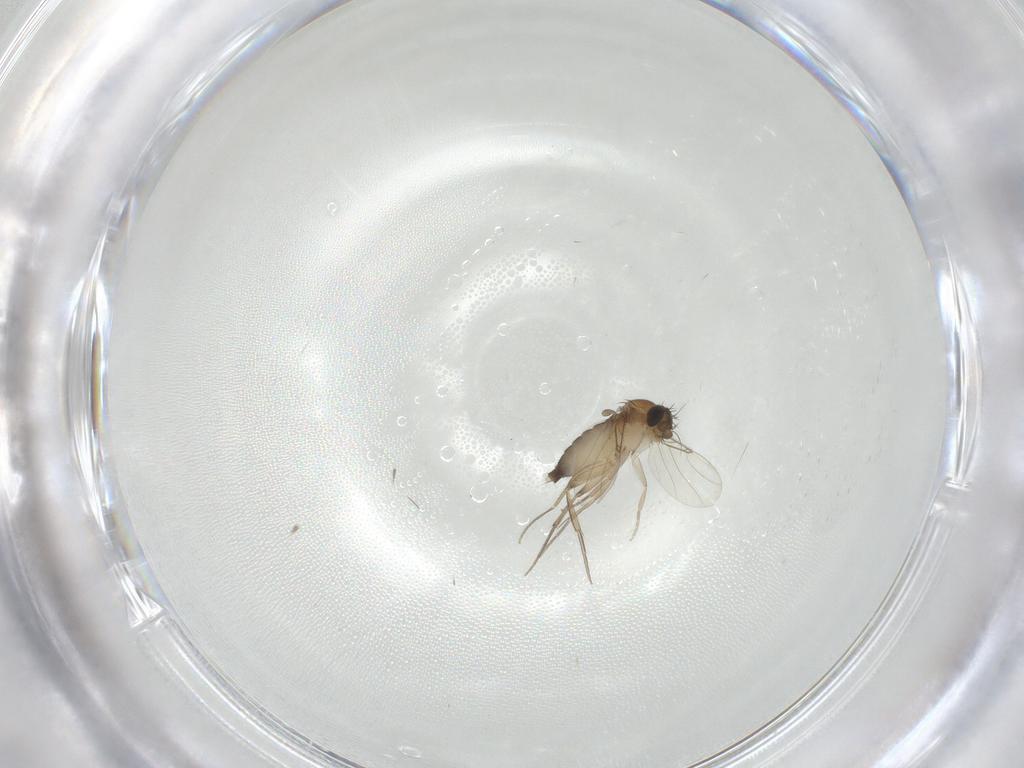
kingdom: Animalia
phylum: Arthropoda
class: Insecta
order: Diptera
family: Phoridae
